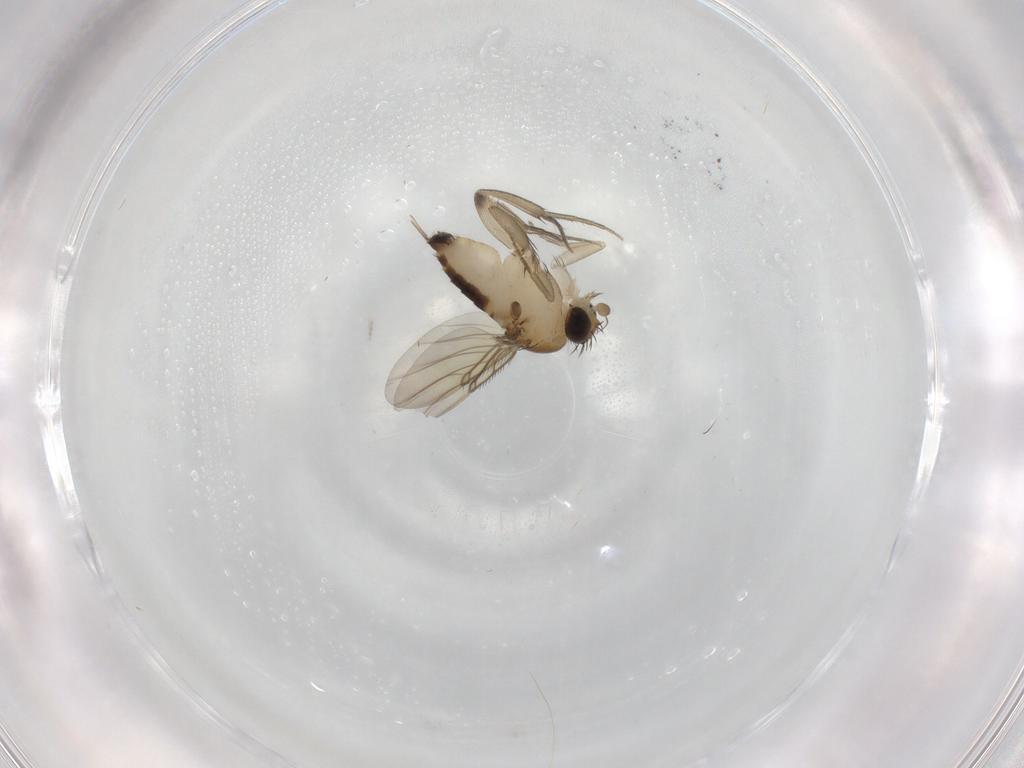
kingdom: Animalia
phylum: Arthropoda
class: Insecta
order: Diptera
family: Phoridae
